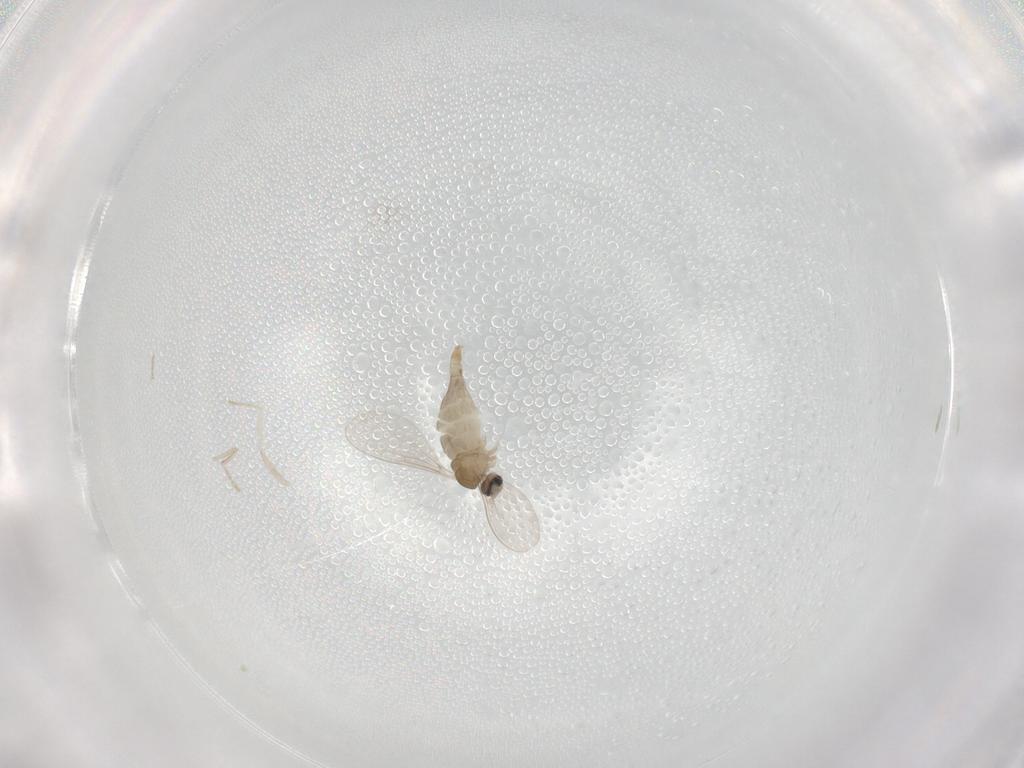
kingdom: Animalia
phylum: Arthropoda
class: Insecta
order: Diptera
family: Cecidomyiidae
